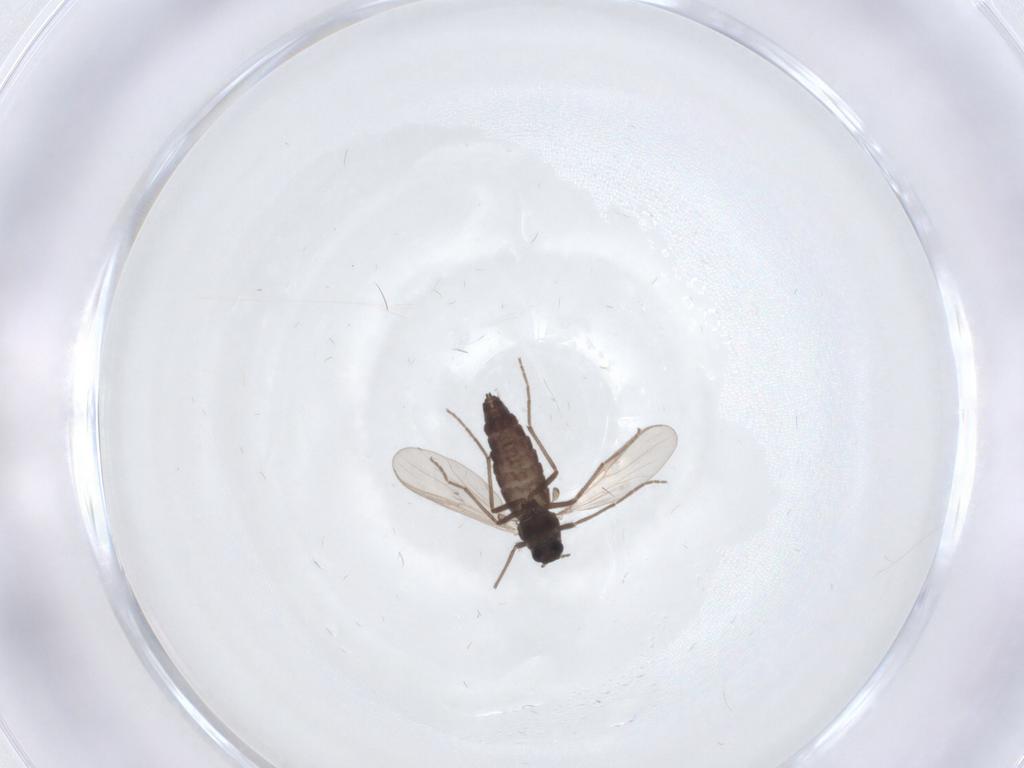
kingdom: Animalia
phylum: Arthropoda
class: Insecta
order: Diptera
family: Chironomidae
